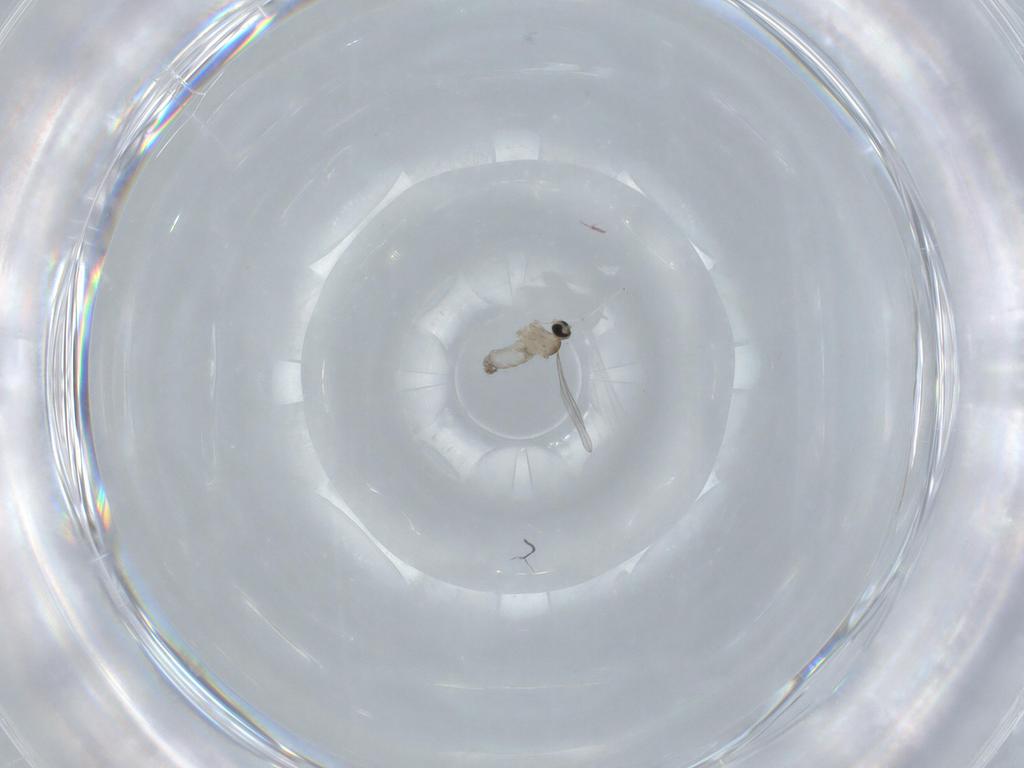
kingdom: Animalia
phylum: Arthropoda
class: Insecta
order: Diptera
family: Cecidomyiidae
